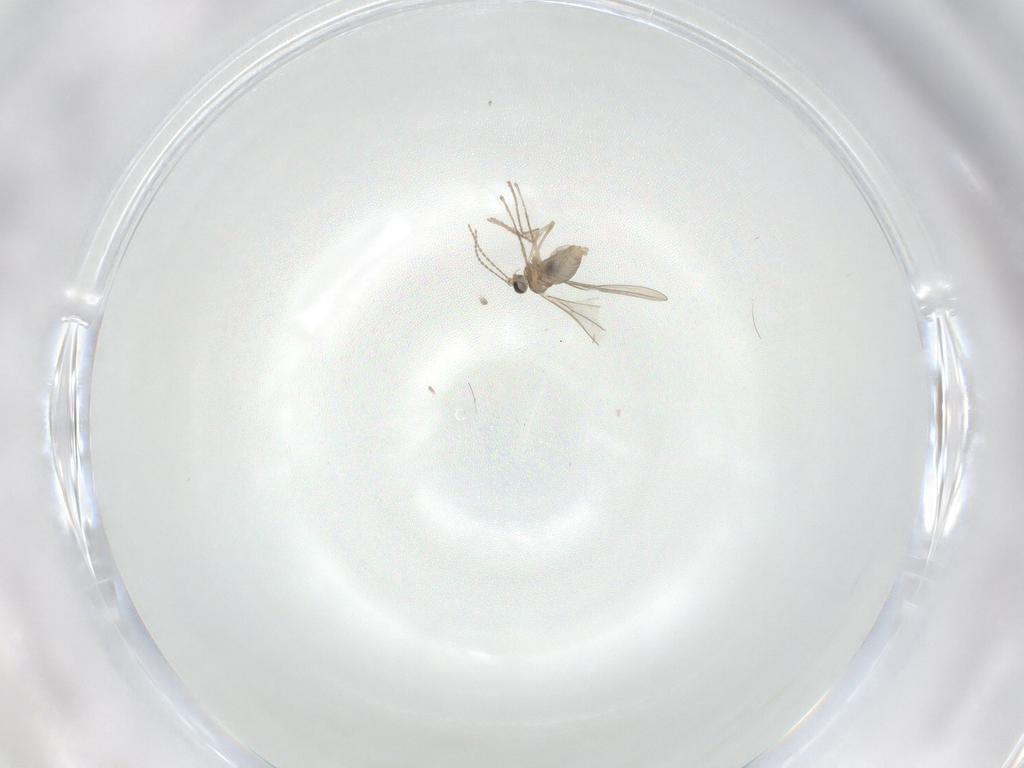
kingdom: Animalia
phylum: Arthropoda
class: Insecta
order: Diptera
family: Cecidomyiidae
